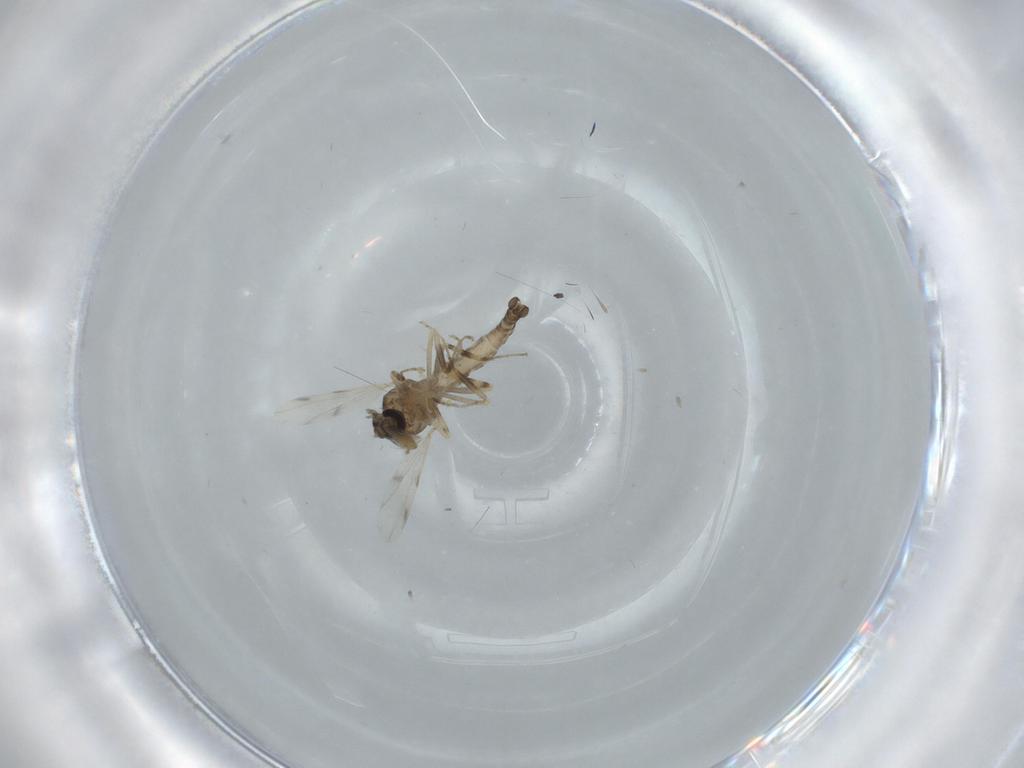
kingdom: Animalia
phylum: Arthropoda
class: Insecta
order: Diptera
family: Ceratopogonidae
